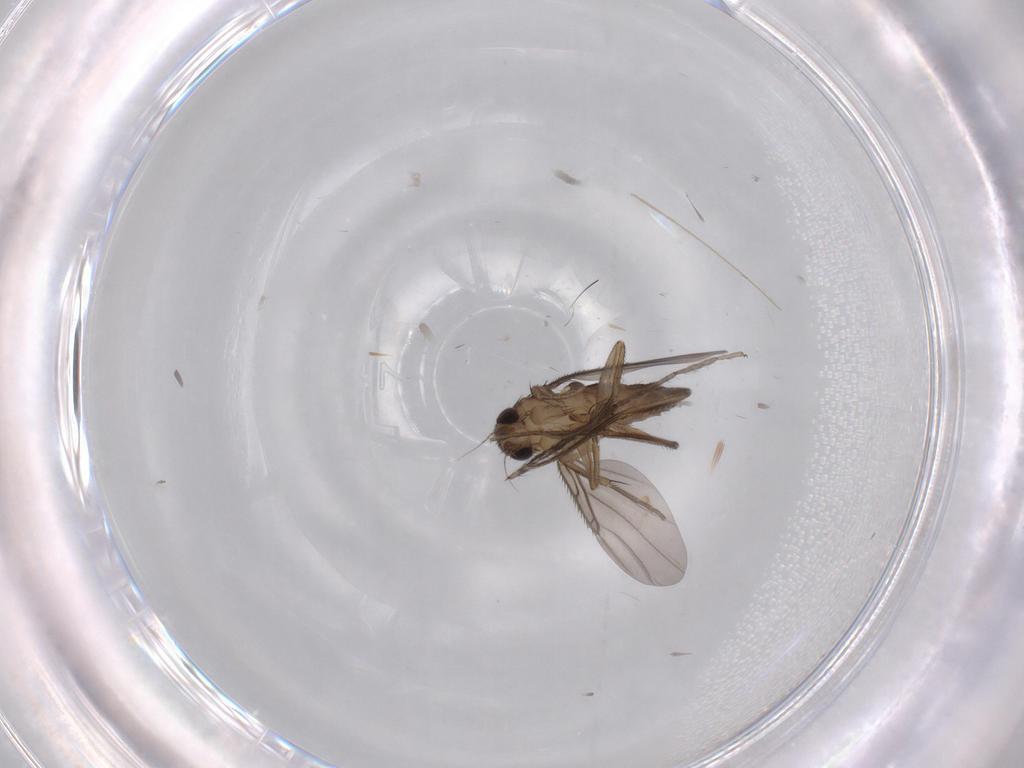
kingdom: Animalia
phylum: Arthropoda
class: Insecta
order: Diptera
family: Phoridae
